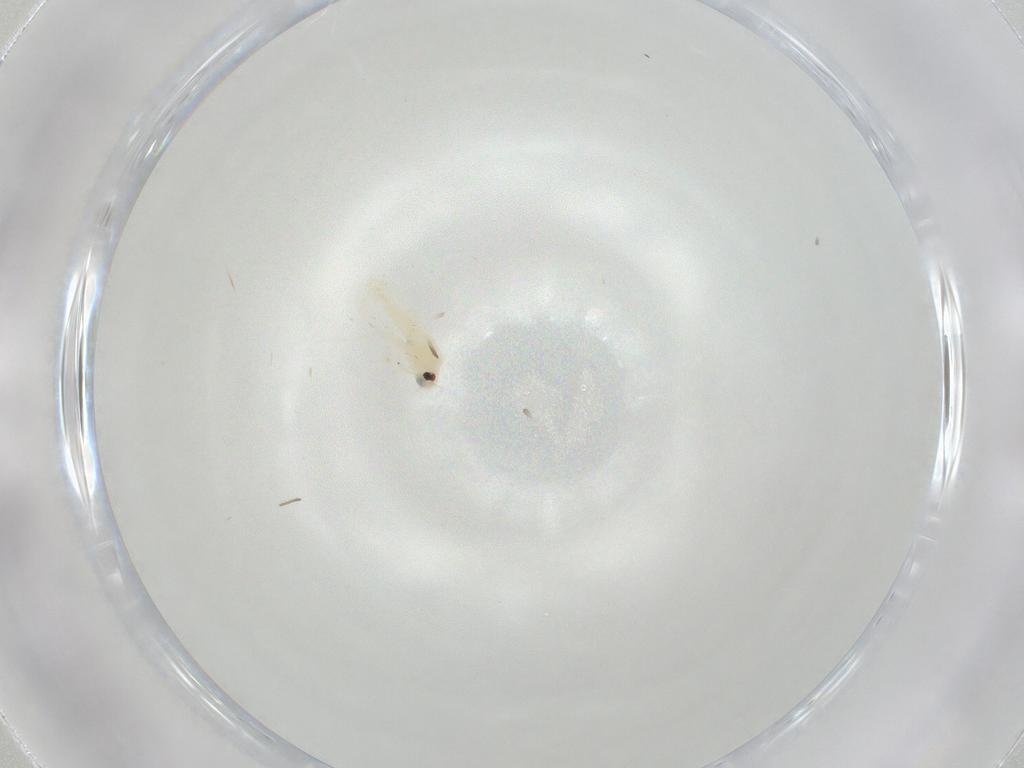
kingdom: Animalia
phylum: Arthropoda
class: Insecta
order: Hemiptera
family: Aleyrodidae
